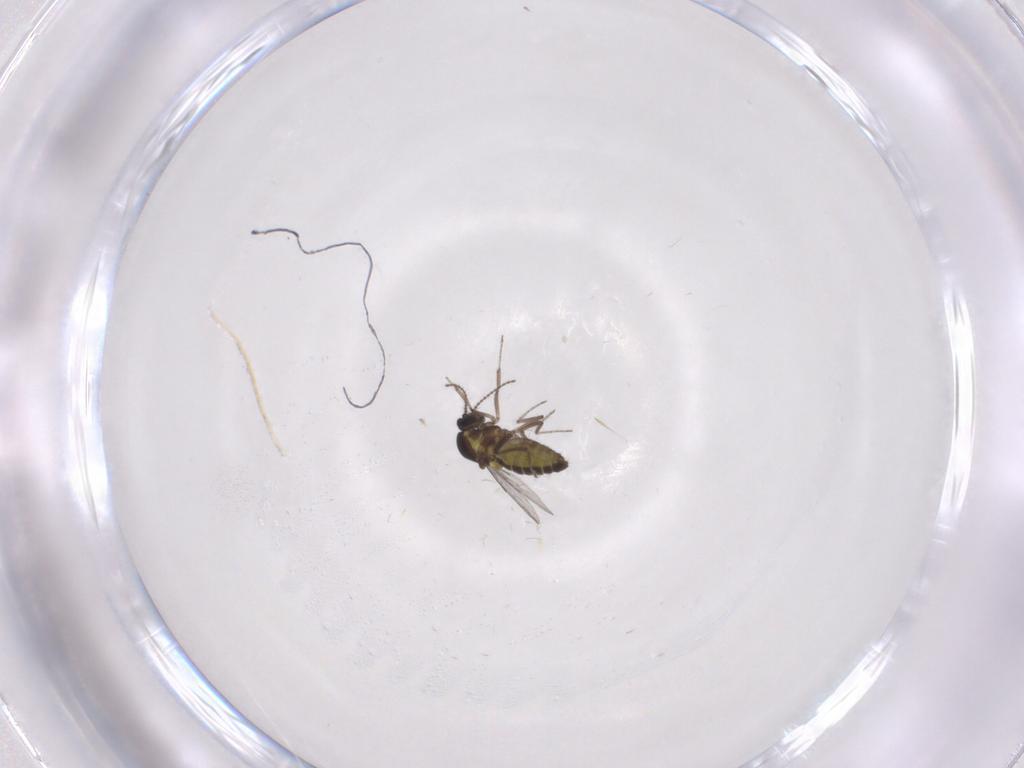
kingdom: Animalia
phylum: Arthropoda
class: Insecta
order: Diptera
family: Ceratopogonidae
